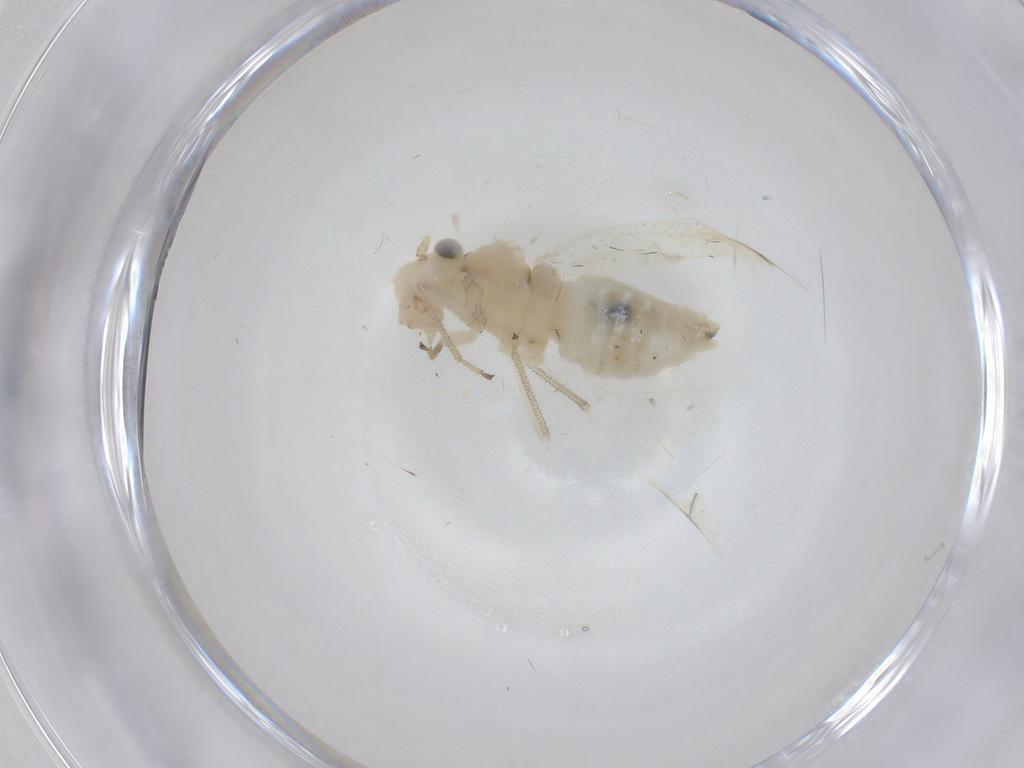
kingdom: Animalia
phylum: Arthropoda
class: Insecta
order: Psocodea
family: Caeciliusidae
